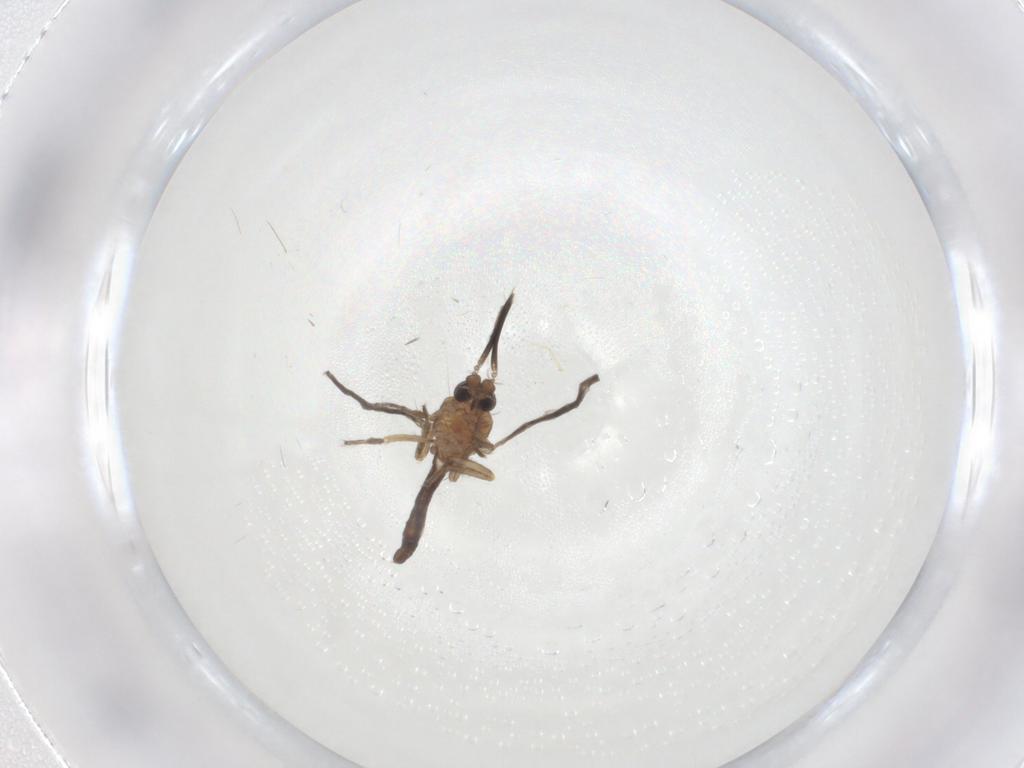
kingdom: Animalia
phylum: Arthropoda
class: Insecta
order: Diptera
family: Ceratopogonidae
